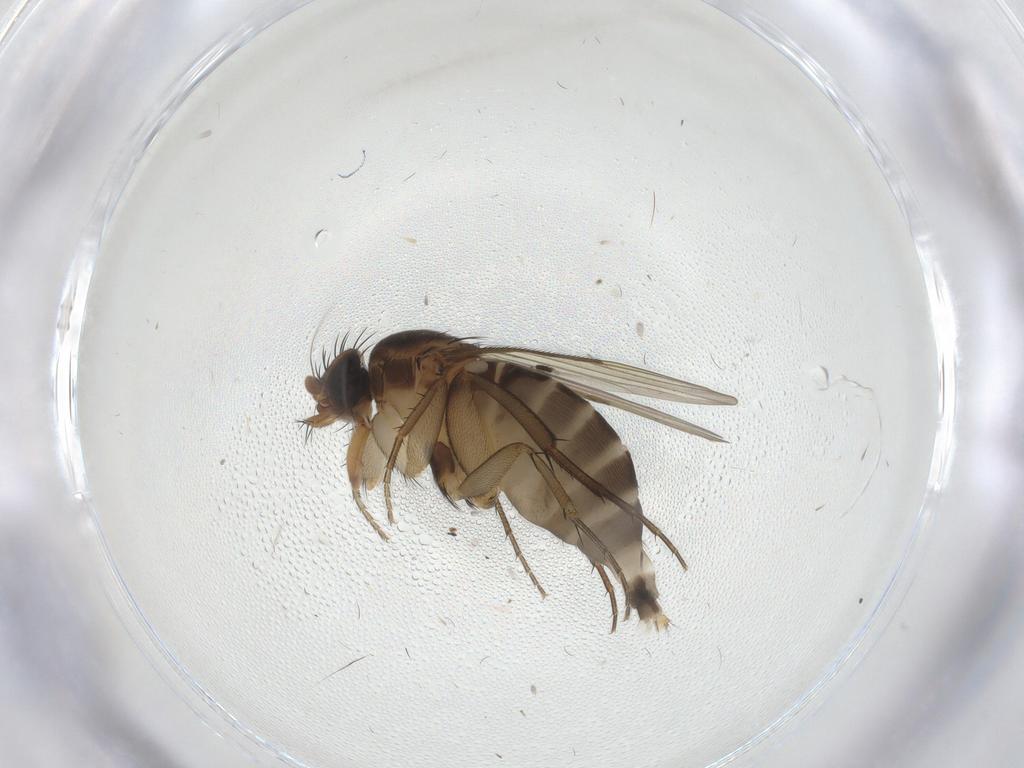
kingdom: Animalia
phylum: Arthropoda
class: Insecta
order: Diptera
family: Phoridae
